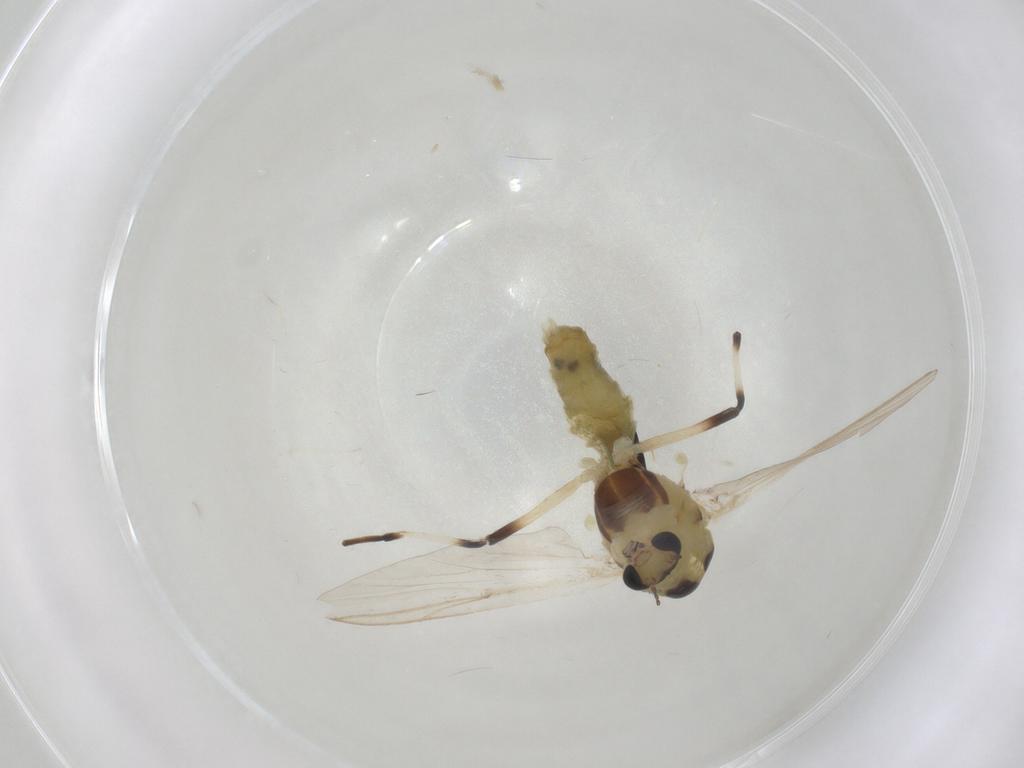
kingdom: Animalia
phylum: Arthropoda
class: Insecta
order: Diptera
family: Chironomidae
